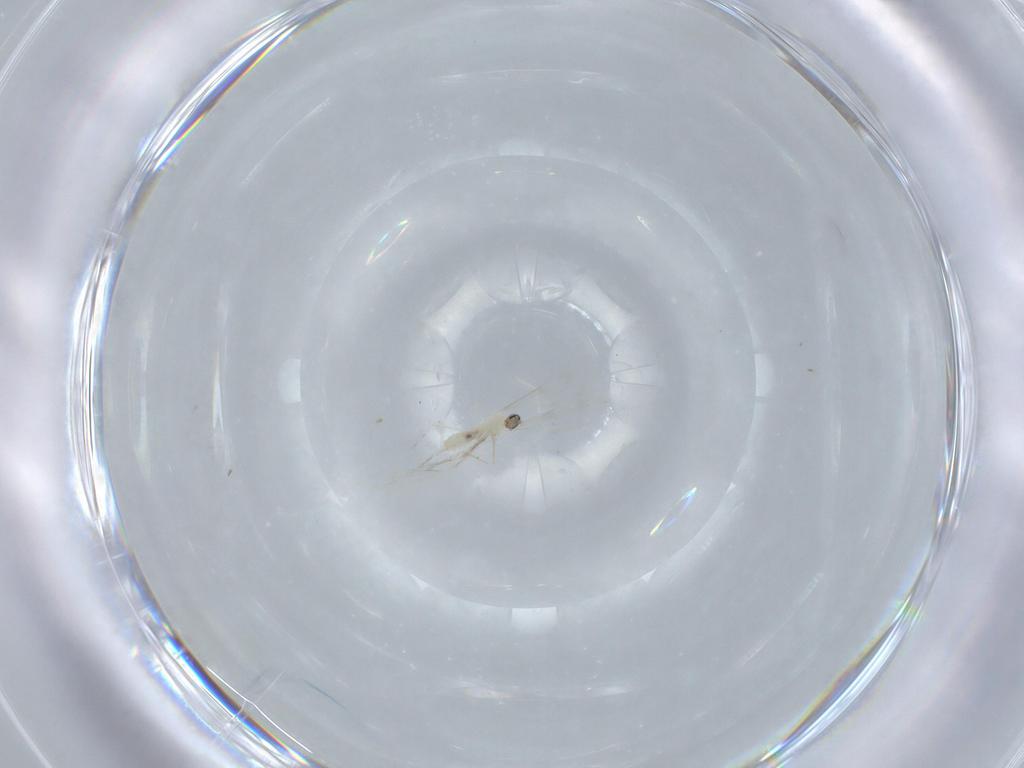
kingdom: Animalia
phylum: Arthropoda
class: Insecta
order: Diptera
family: Cecidomyiidae
